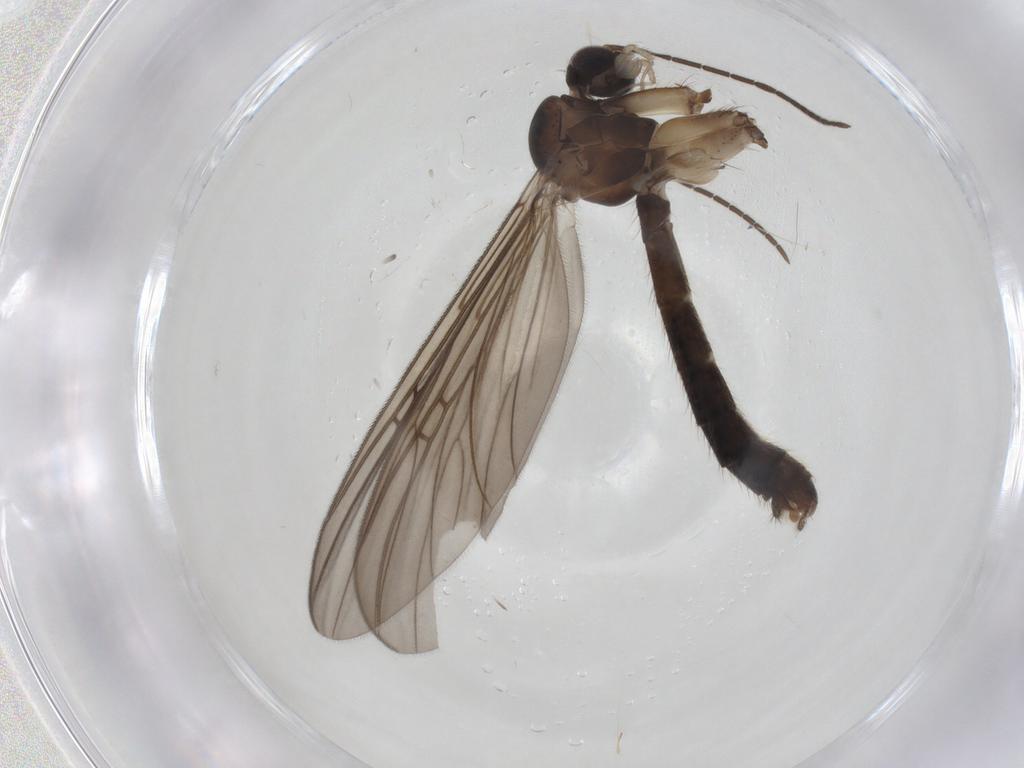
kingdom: Animalia
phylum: Arthropoda
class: Insecta
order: Diptera
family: Mycetophilidae
